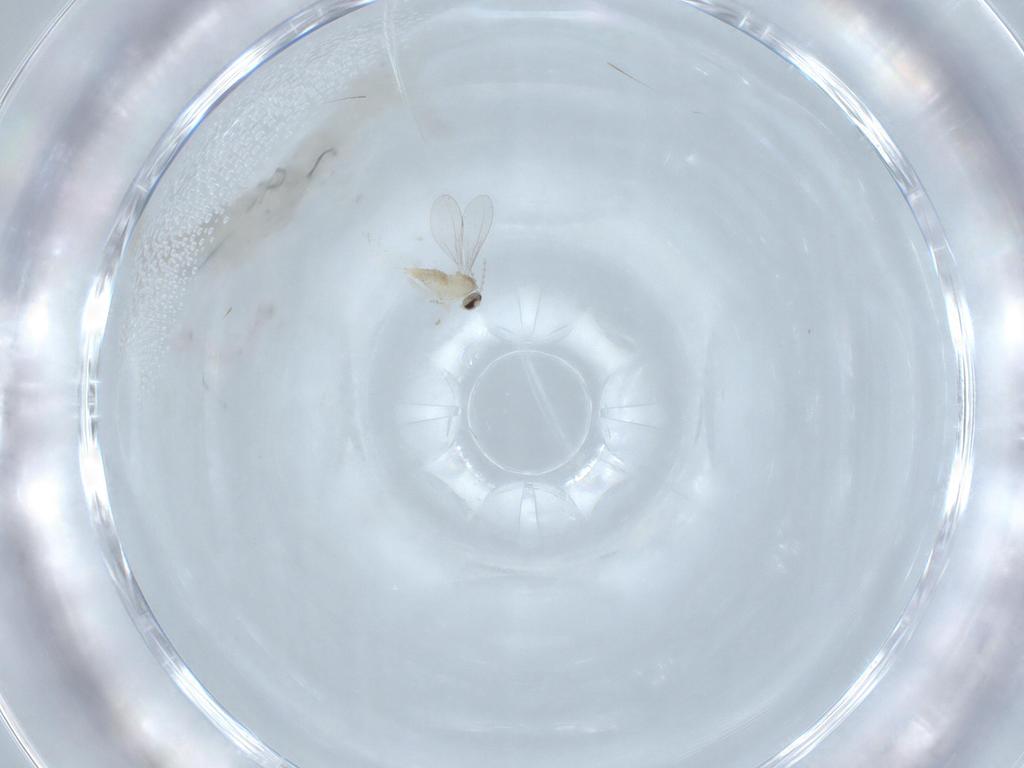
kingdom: Animalia
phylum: Arthropoda
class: Insecta
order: Diptera
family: Cecidomyiidae
